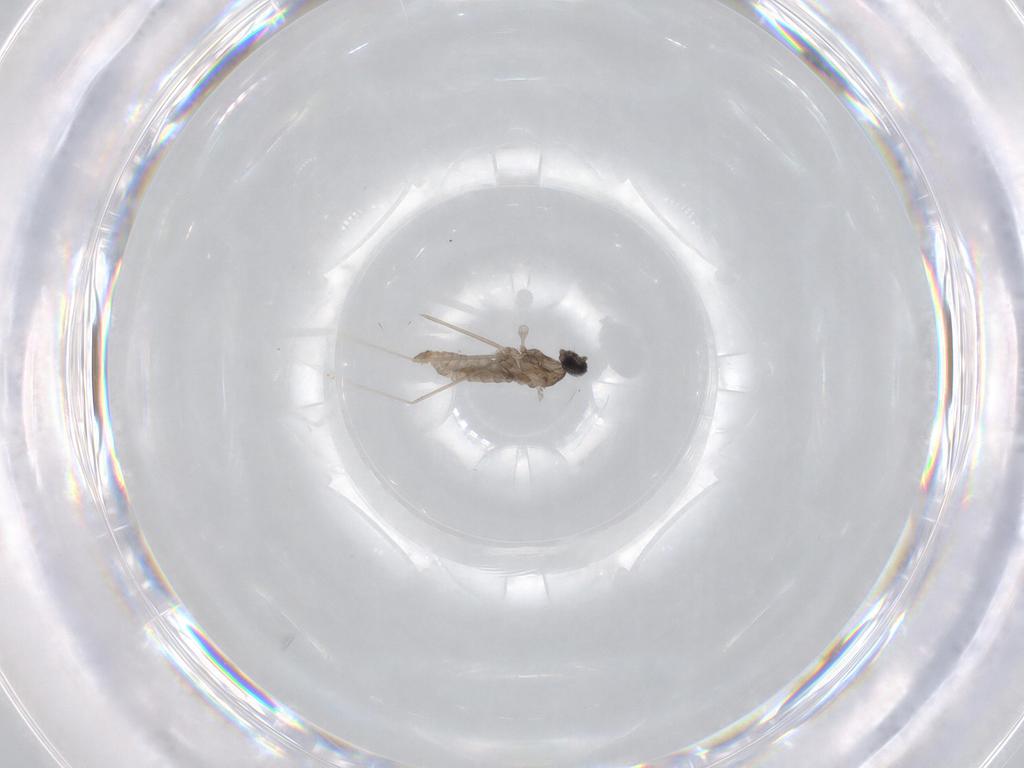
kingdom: Animalia
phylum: Arthropoda
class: Insecta
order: Diptera
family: Cecidomyiidae
